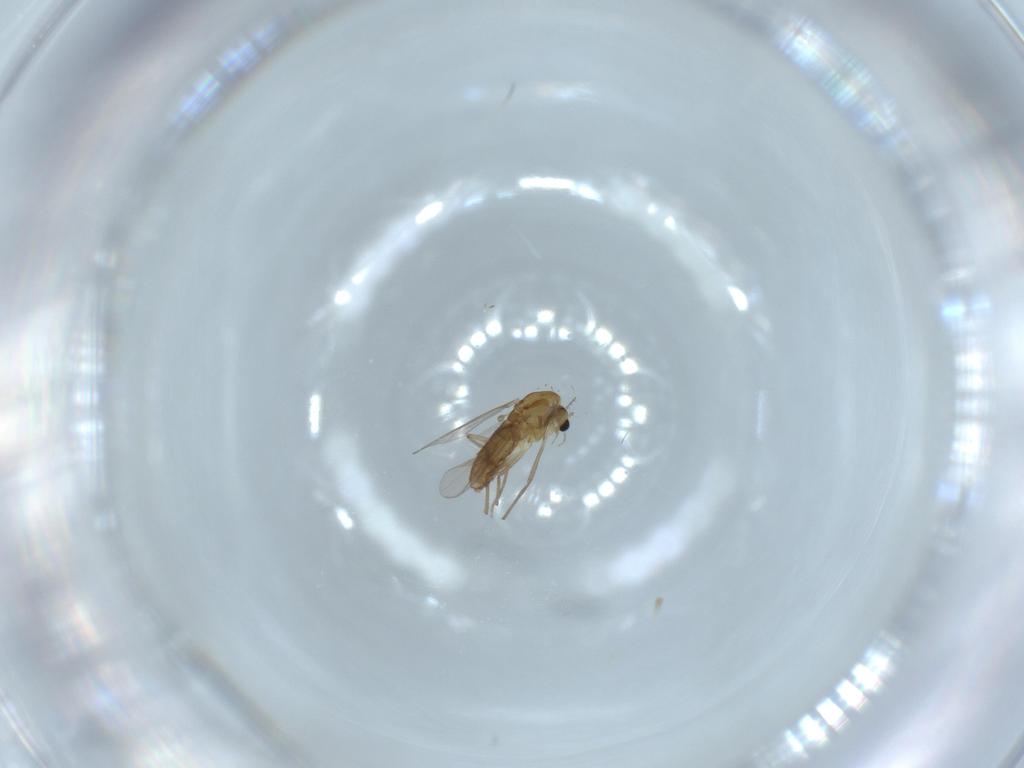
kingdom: Animalia
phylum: Arthropoda
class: Insecta
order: Diptera
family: Chironomidae
